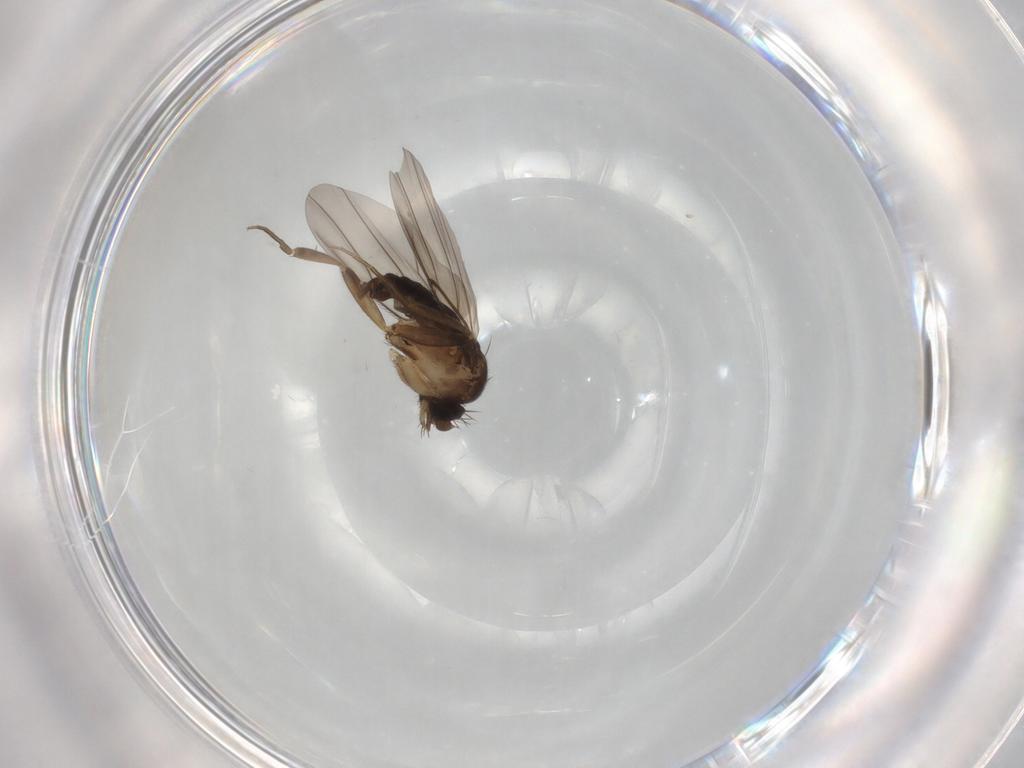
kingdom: Animalia
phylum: Arthropoda
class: Insecta
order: Diptera
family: Phoridae
